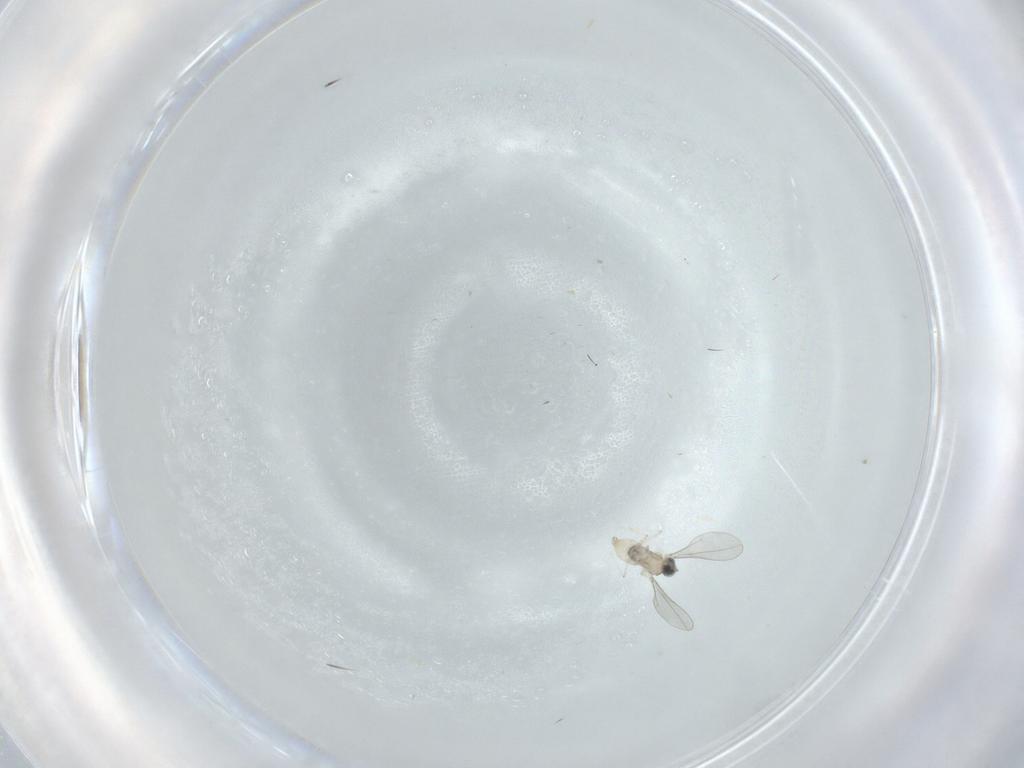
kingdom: Animalia
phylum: Arthropoda
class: Insecta
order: Diptera
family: Cecidomyiidae
